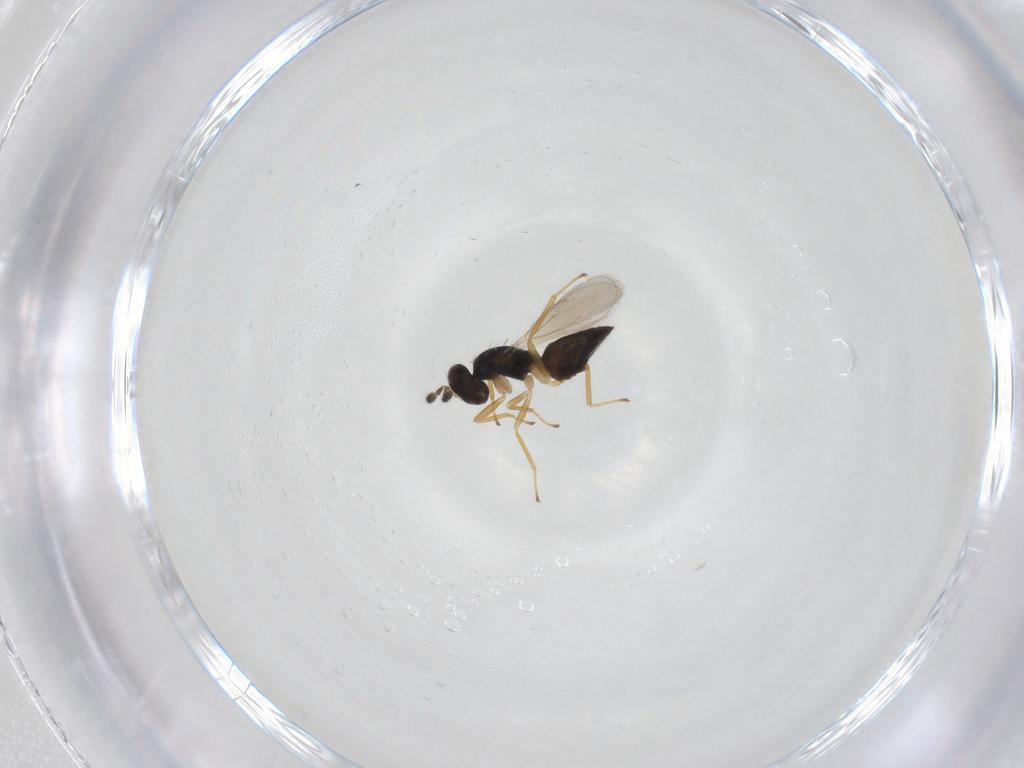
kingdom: Animalia
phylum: Arthropoda
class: Insecta
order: Hymenoptera
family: Eulophidae
